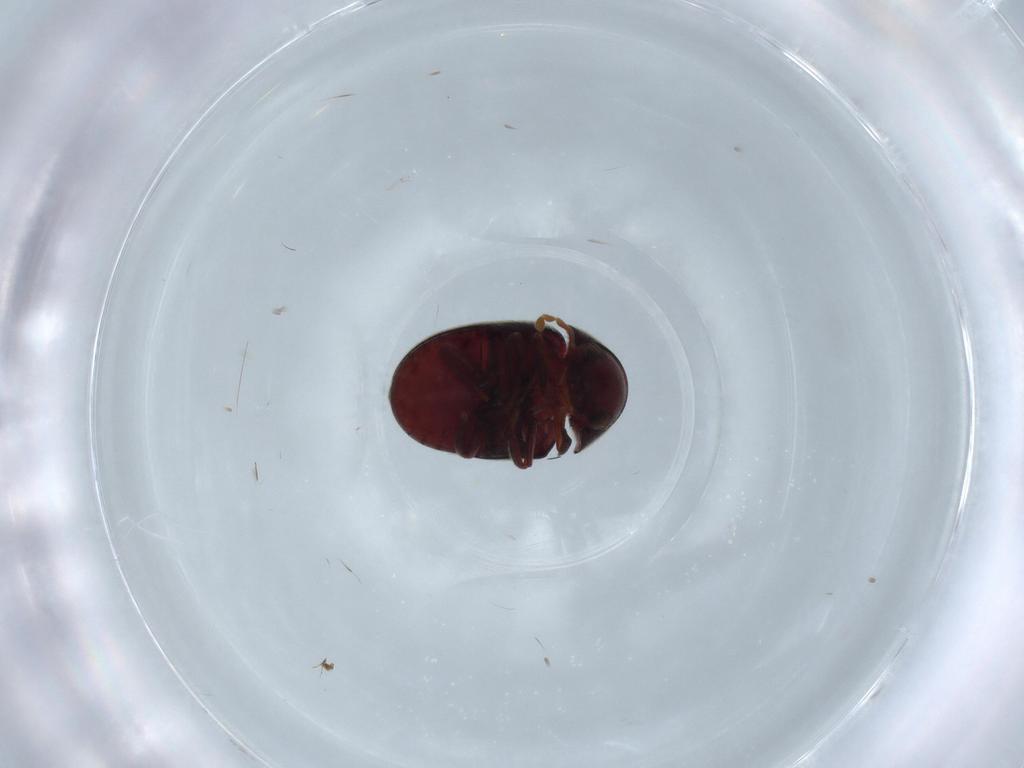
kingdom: Animalia
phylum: Arthropoda
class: Insecta
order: Coleoptera
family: Ptinidae
